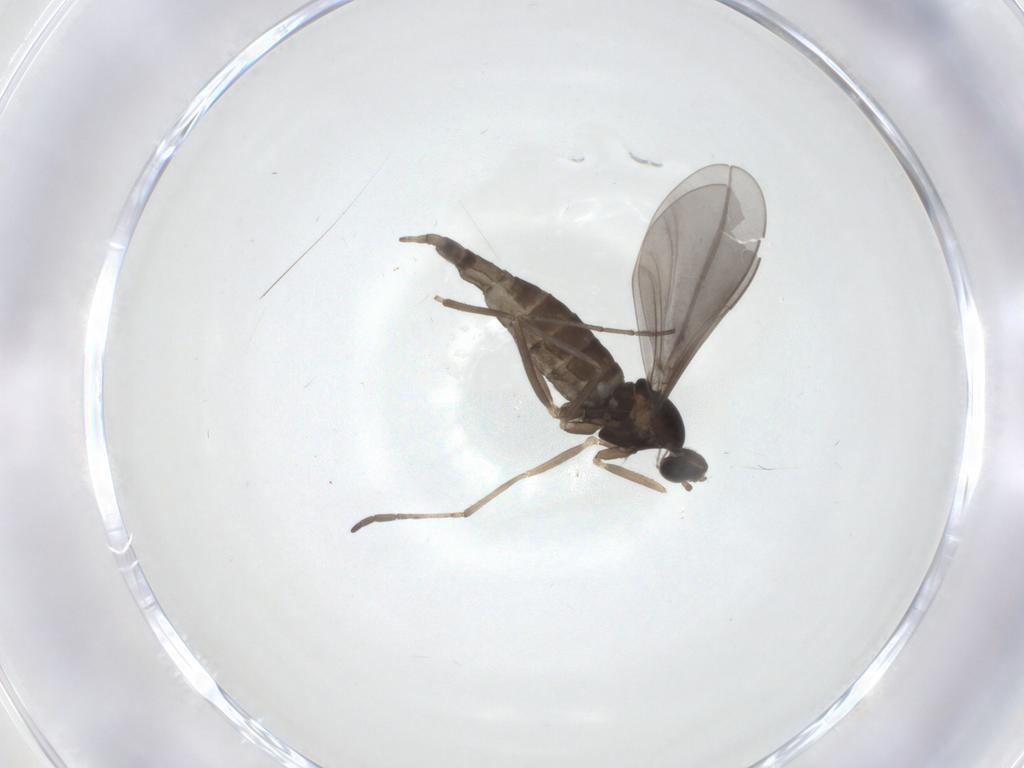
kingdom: Animalia
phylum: Arthropoda
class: Insecta
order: Diptera
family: Cecidomyiidae
